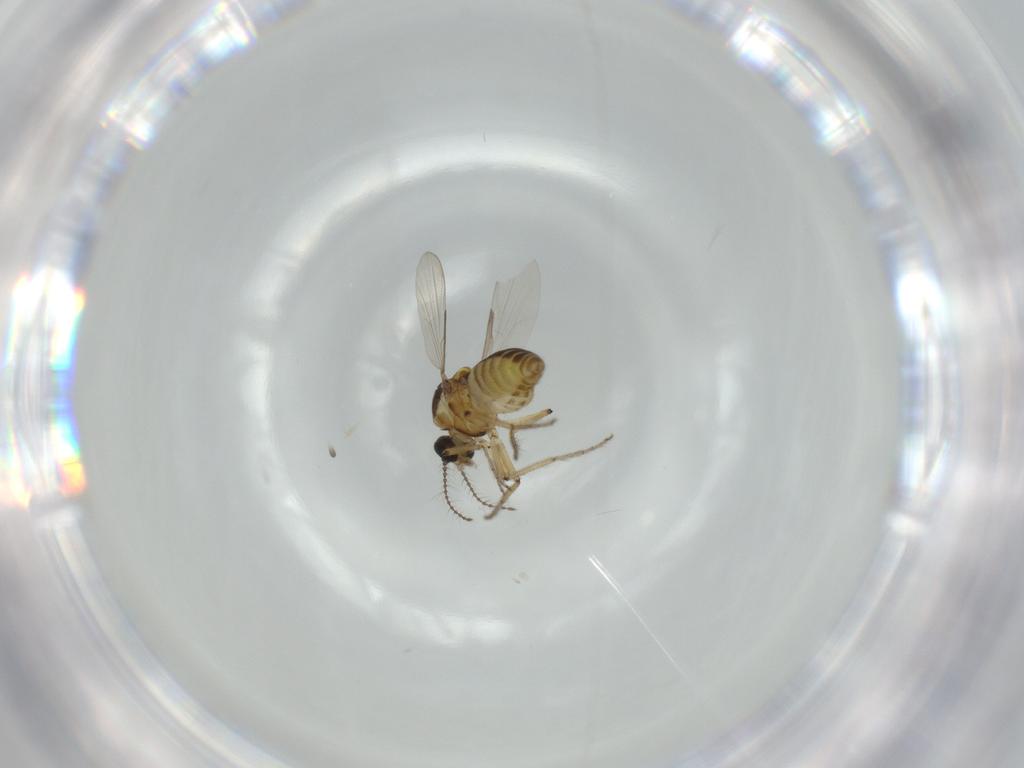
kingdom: Animalia
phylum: Arthropoda
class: Insecta
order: Diptera
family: Ceratopogonidae
